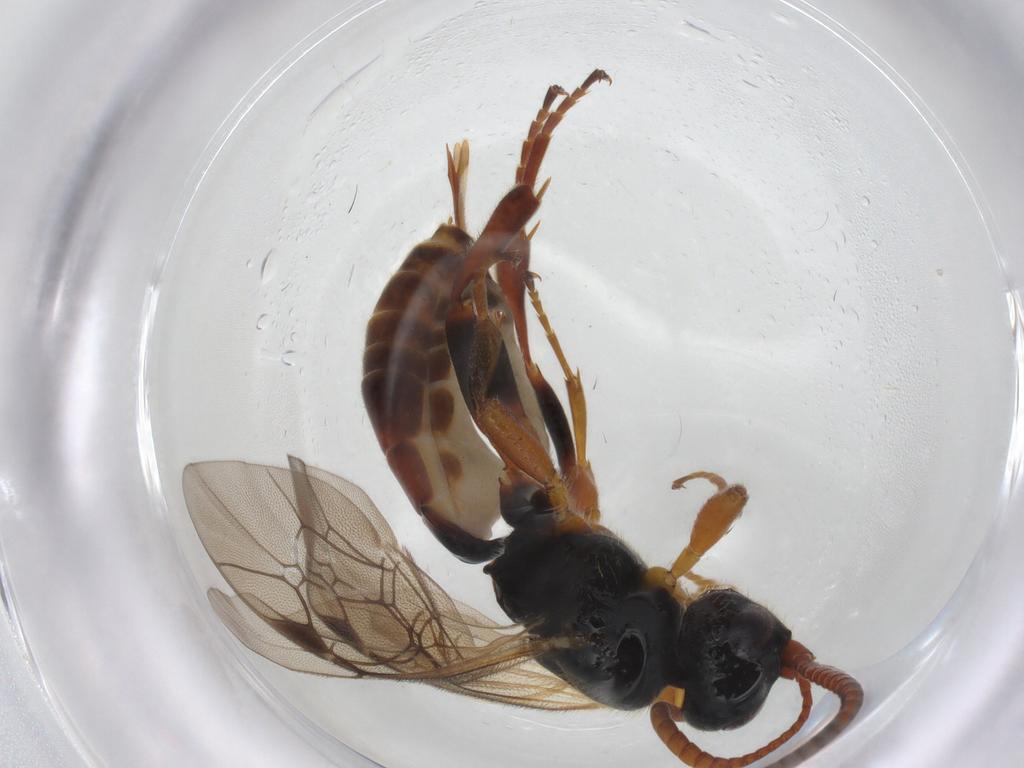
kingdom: Animalia
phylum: Arthropoda
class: Insecta
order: Hymenoptera
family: Ichneumonidae
